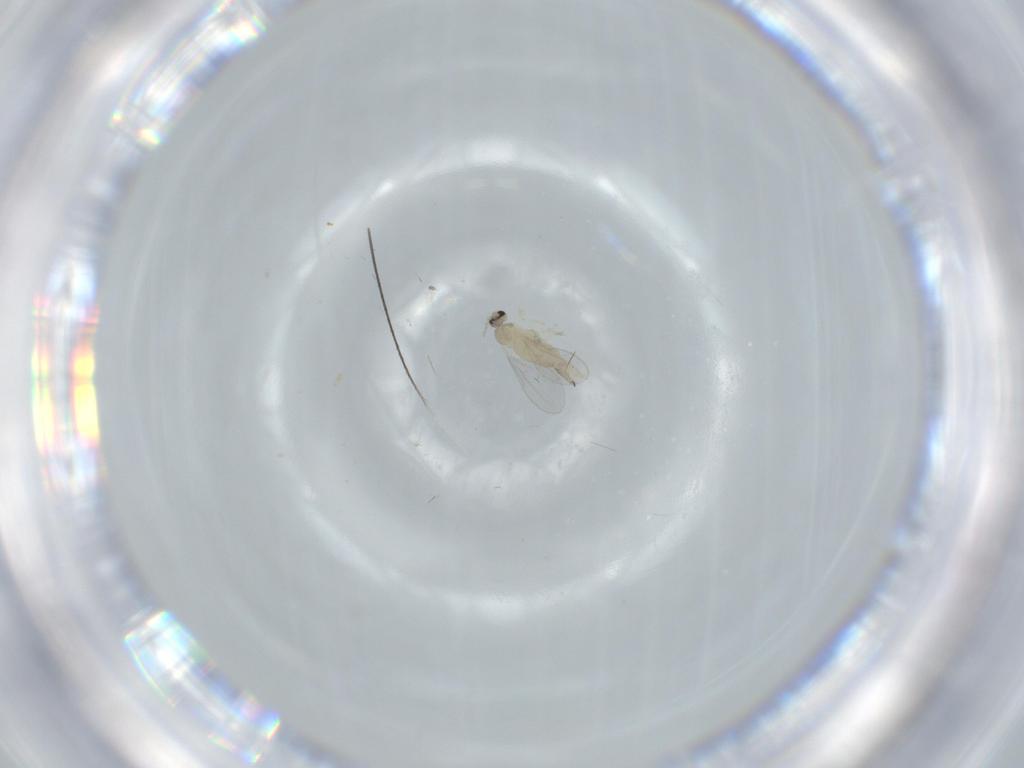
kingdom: Animalia
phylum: Arthropoda
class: Insecta
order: Diptera
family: Cecidomyiidae
